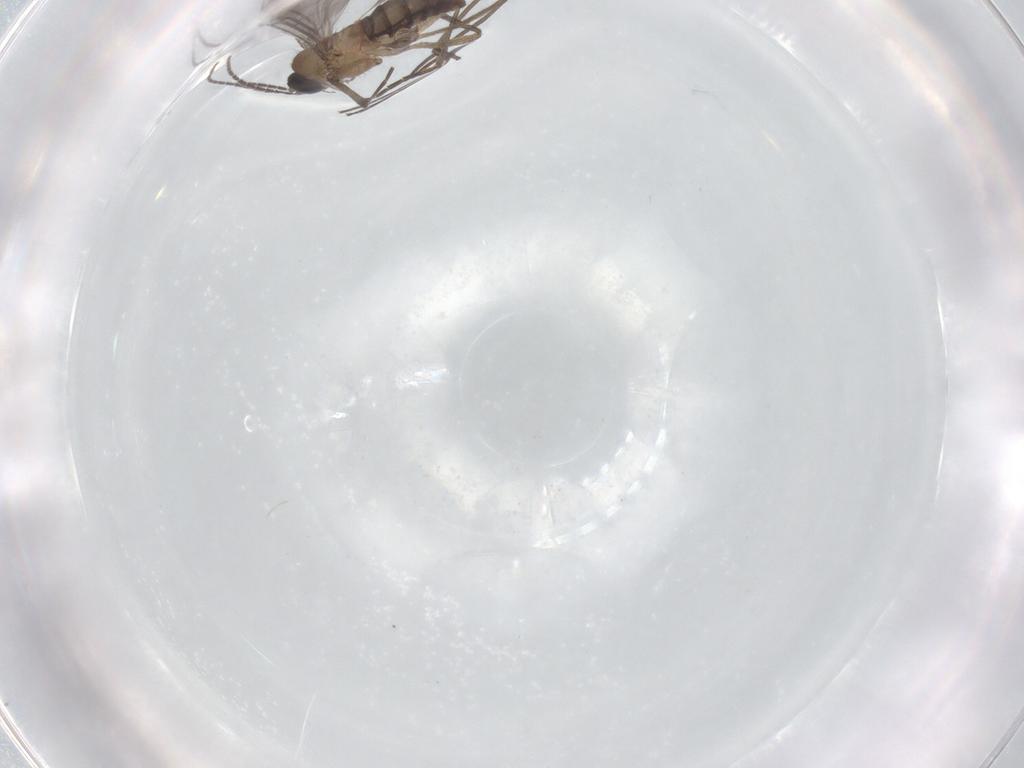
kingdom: Animalia
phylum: Arthropoda
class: Insecta
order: Diptera
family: Sciaridae
